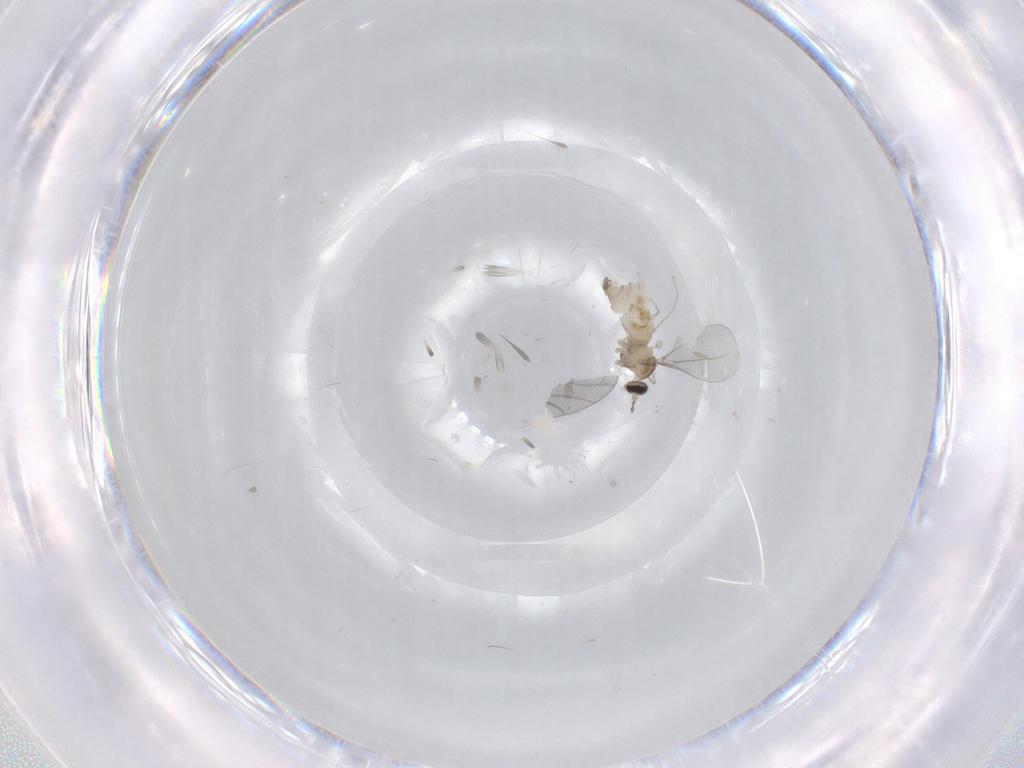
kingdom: Animalia
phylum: Arthropoda
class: Insecta
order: Diptera
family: Cecidomyiidae
